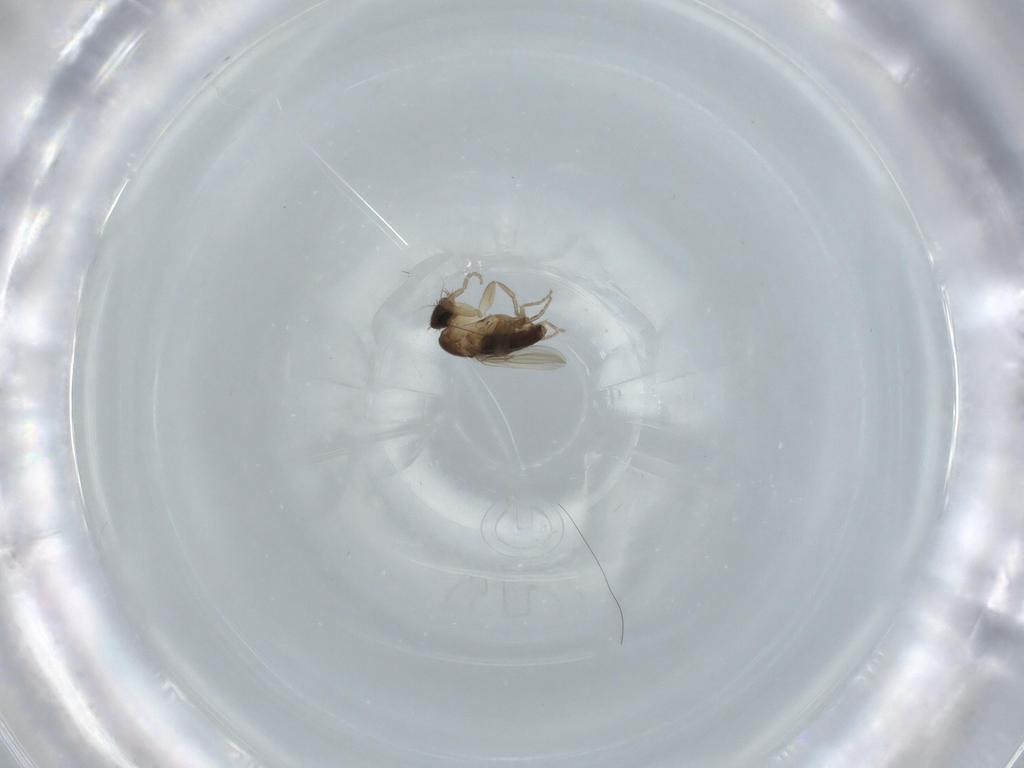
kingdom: Animalia
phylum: Arthropoda
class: Insecta
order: Diptera
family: Phoridae
